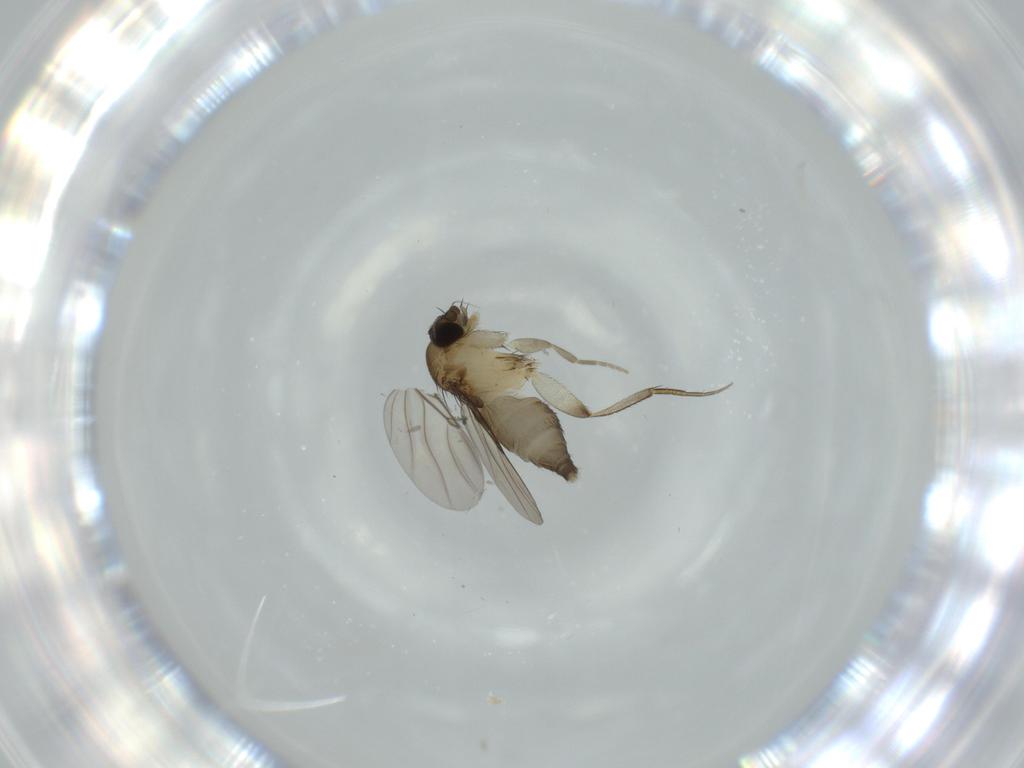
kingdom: Animalia
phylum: Arthropoda
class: Insecta
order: Diptera
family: Phoridae
